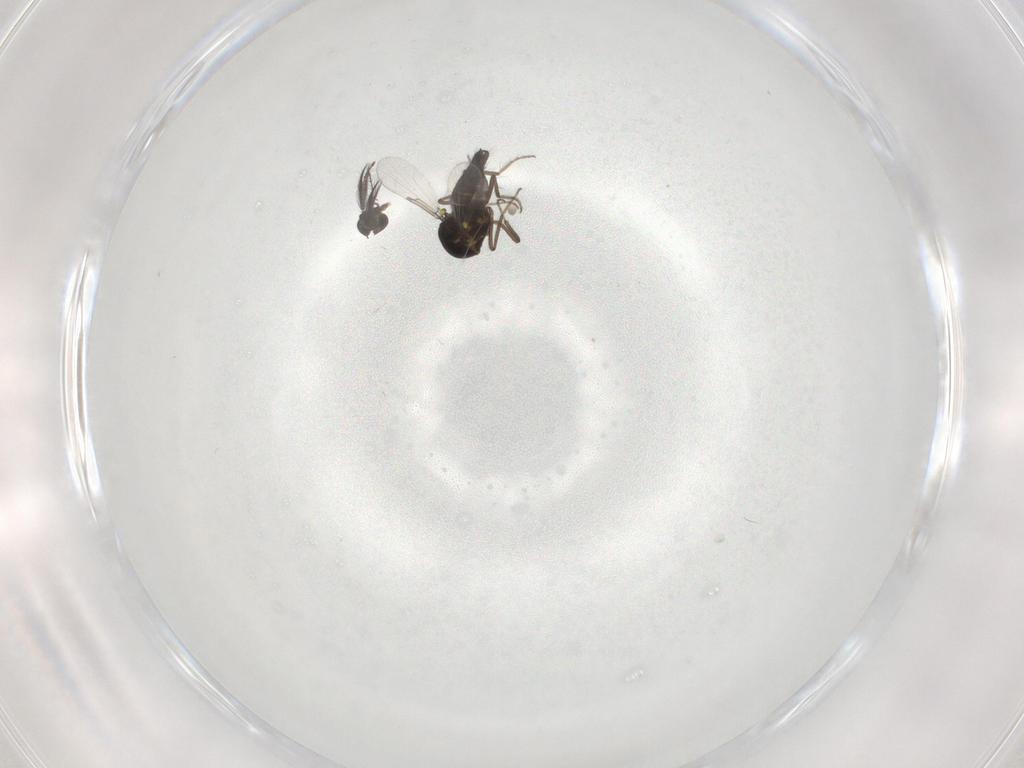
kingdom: Animalia
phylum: Arthropoda
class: Insecta
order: Diptera
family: Ceratopogonidae
